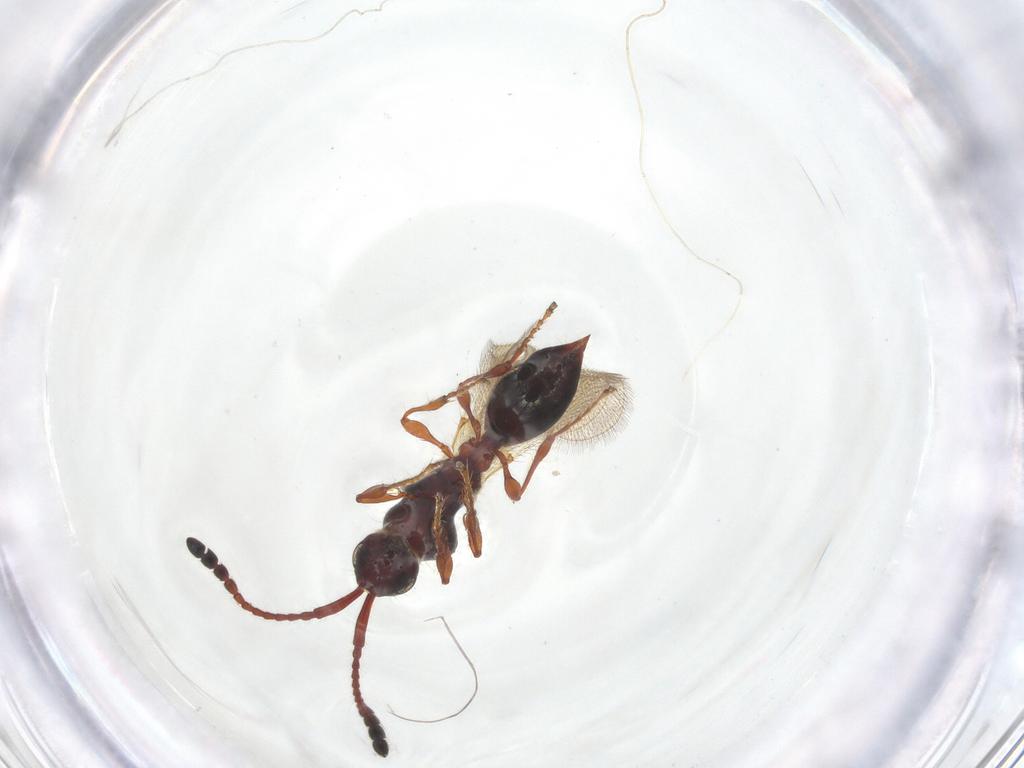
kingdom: Animalia
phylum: Arthropoda
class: Insecta
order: Hymenoptera
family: Diapriidae
